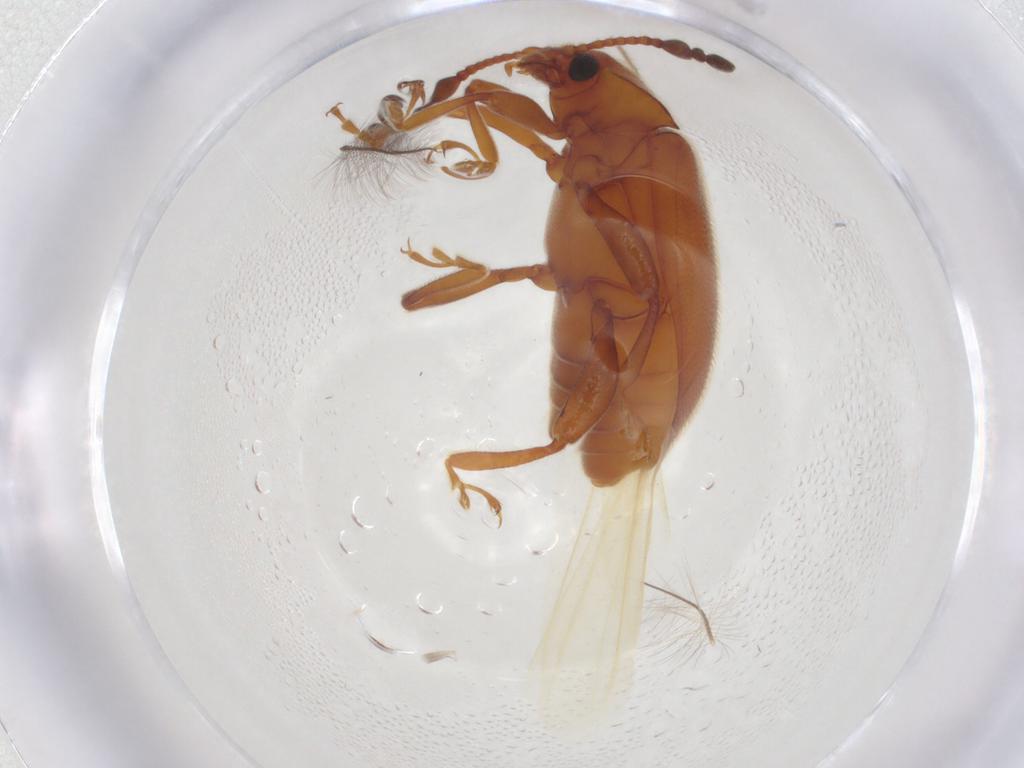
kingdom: Animalia
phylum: Arthropoda
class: Insecta
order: Coleoptera
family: Endomychidae
